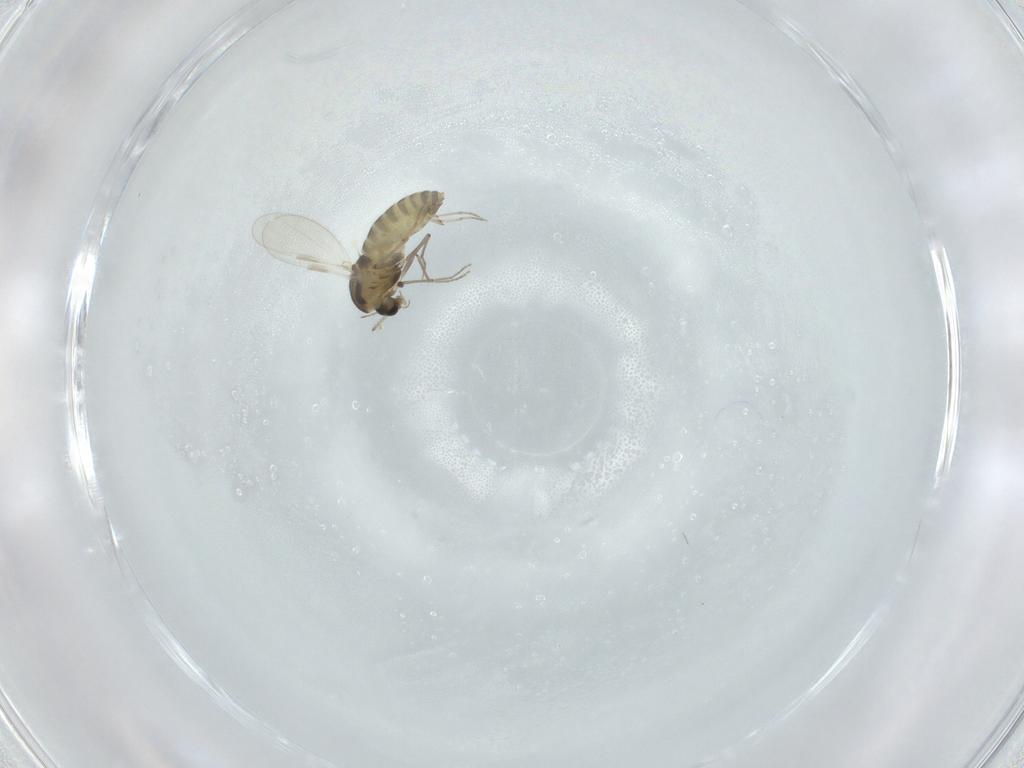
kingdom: Animalia
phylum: Arthropoda
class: Insecta
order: Diptera
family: Chironomidae
